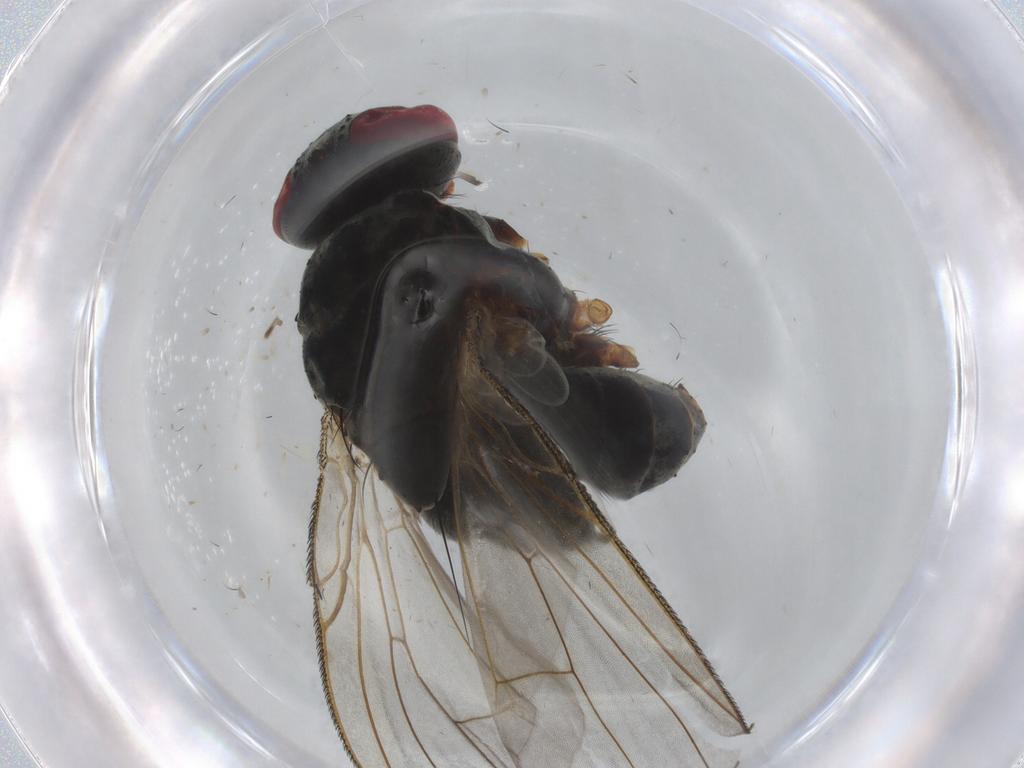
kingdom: Animalia
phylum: Arthropoda
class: Insecta
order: Diptera
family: Muscidae
